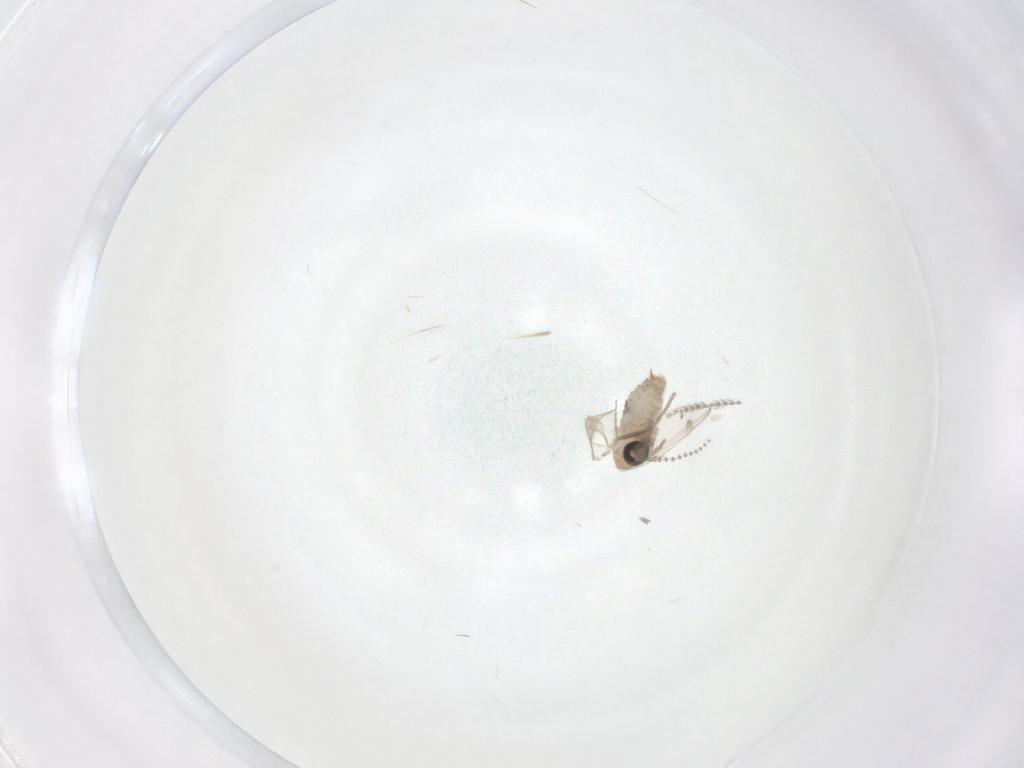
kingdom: Animalia
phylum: Arthropoda
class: Insecta
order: Diptera
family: Psychodidae
